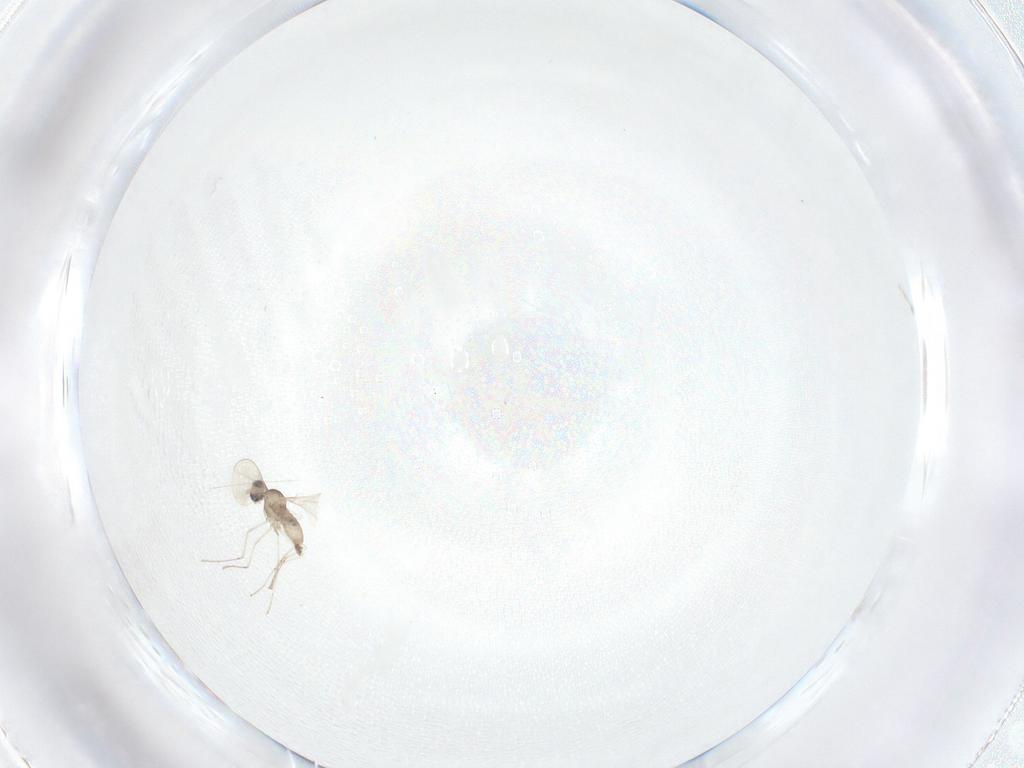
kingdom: Animalia
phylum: Arthropoda
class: Insecta
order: Diptera
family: Cecidomyiidae
